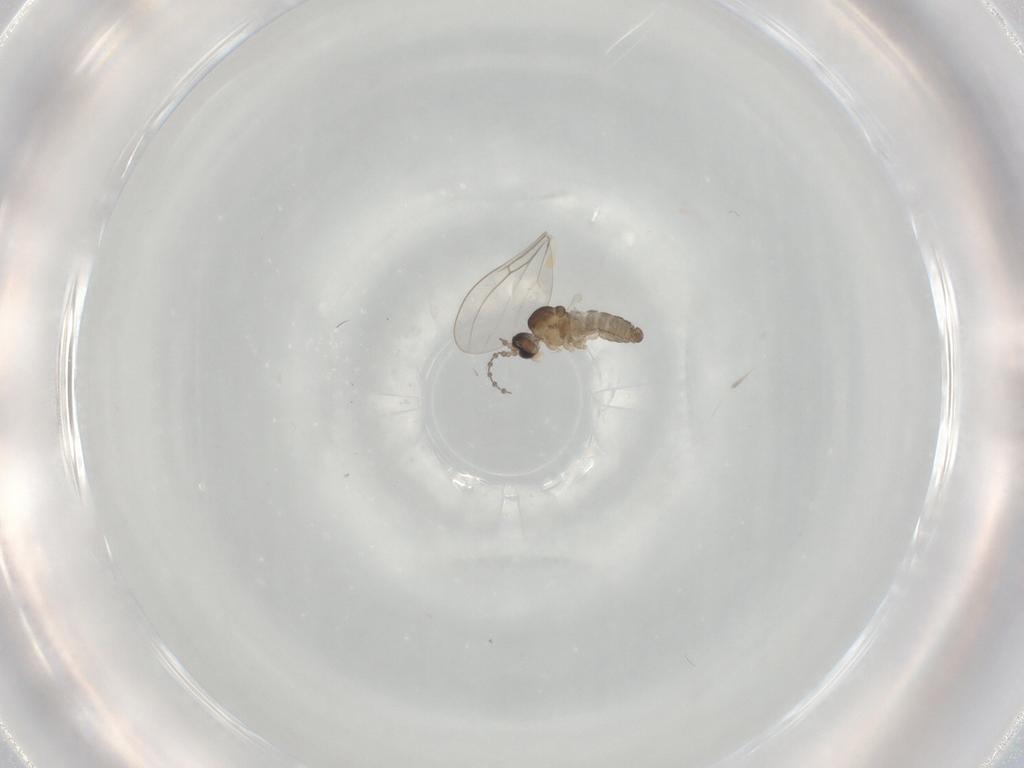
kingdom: Animalia
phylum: Arthropoda
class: Insecta
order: Diptera
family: Cecidomyiidae
